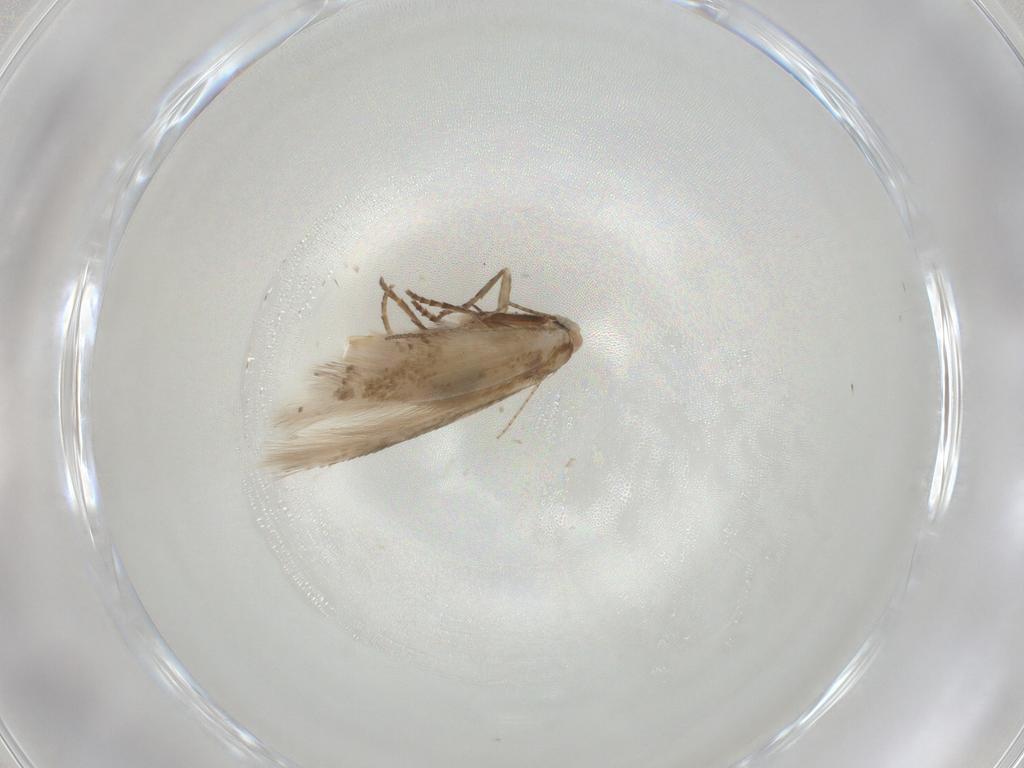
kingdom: Animalia
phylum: Arthropoda
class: Insecta
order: Lepidoptera
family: Bucculatricidae
